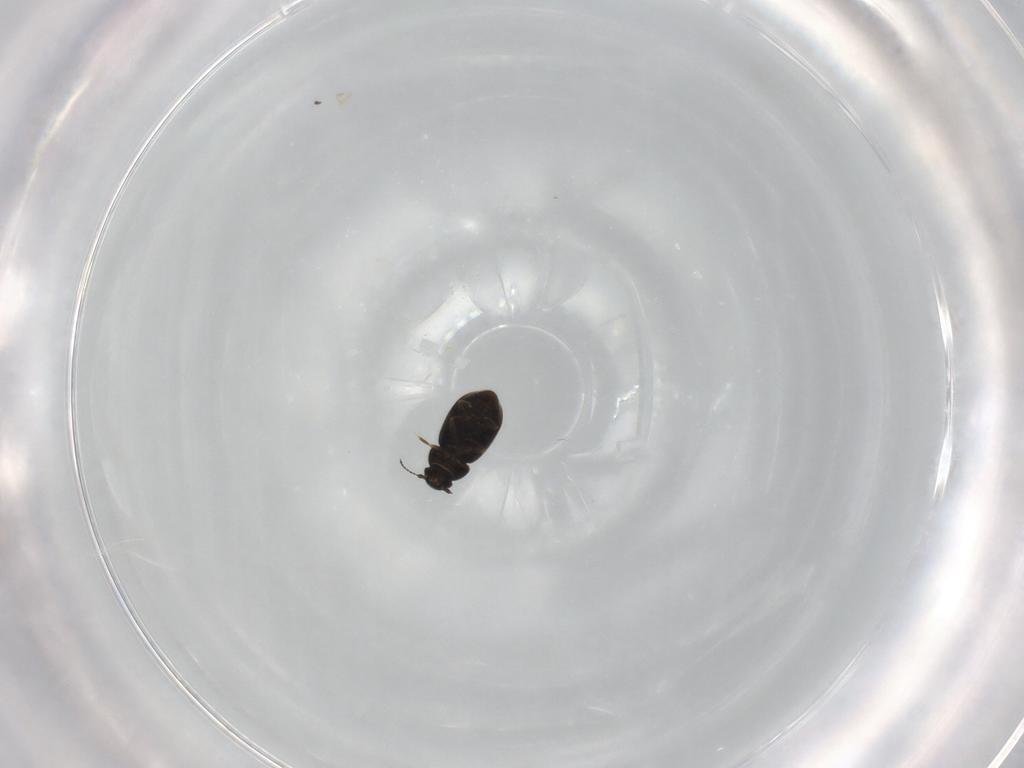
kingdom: Animalia
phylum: Arthropoda
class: Insecta
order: Coleoptera
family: Ptiliidae
